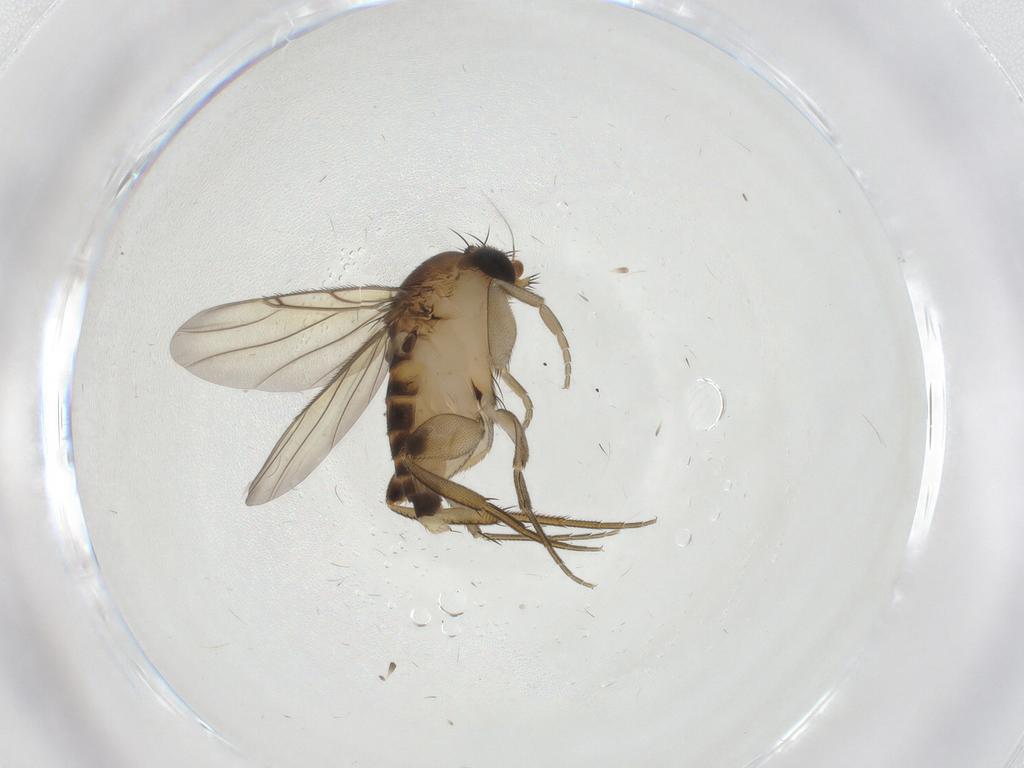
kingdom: Animalia
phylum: Arthropoda
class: Insecta
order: Diptera
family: Phoridae
